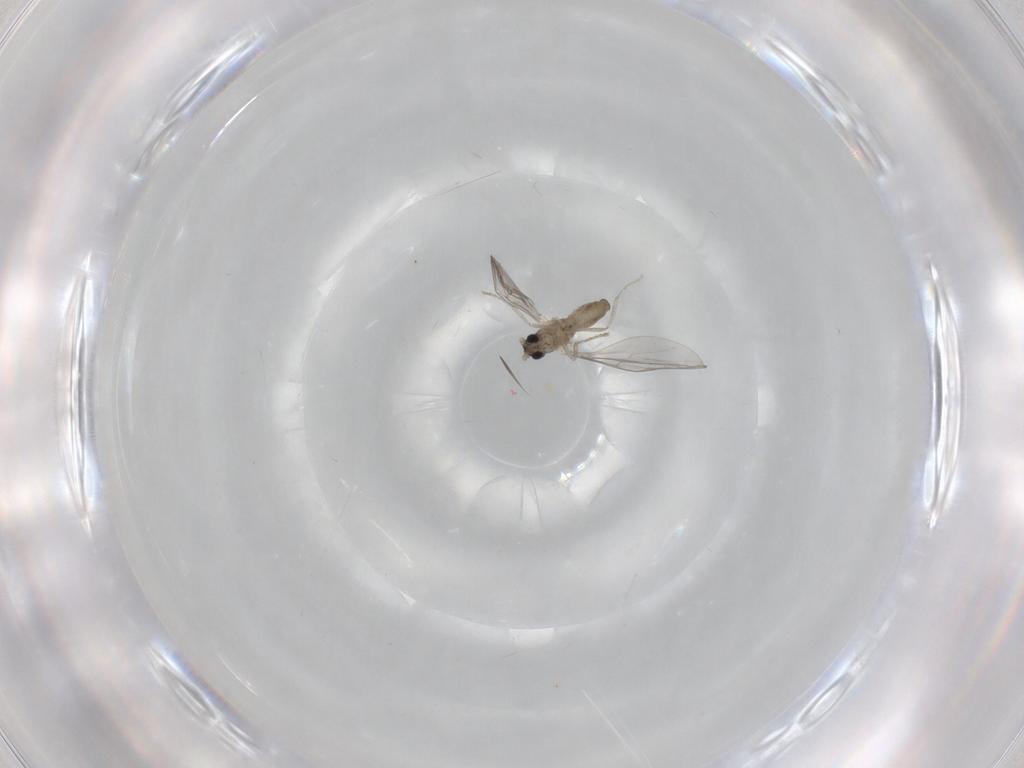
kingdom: Animalia
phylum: Arthropoda
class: Insecta
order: Diptera
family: Cecidomyiidae
